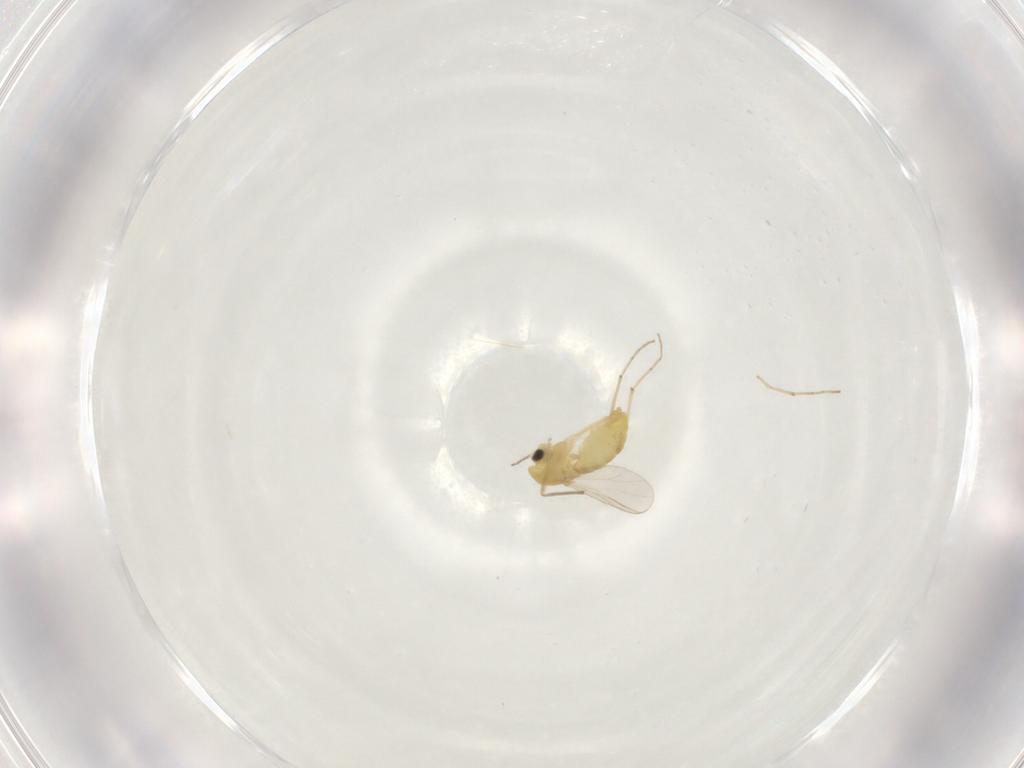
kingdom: Animalia
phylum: Arthropoda
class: Insecta
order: Diptera
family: Chironomidae
